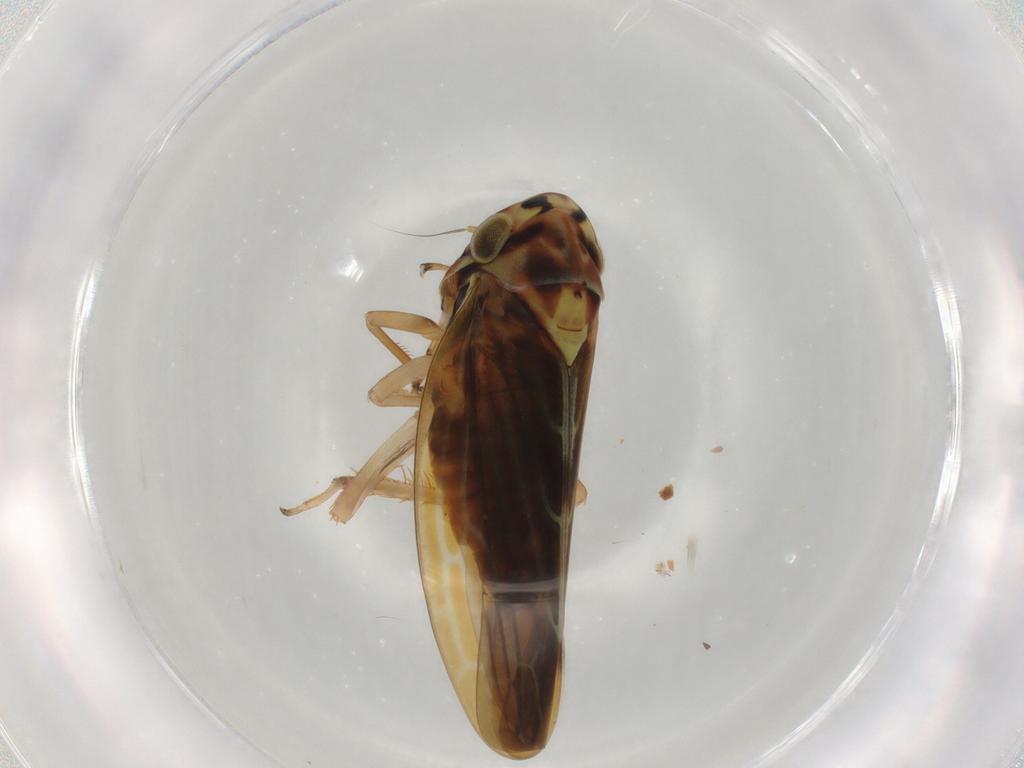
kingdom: Animalia
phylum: Arthropoda
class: Insecta
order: Hemiptera
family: Cicadellidae
